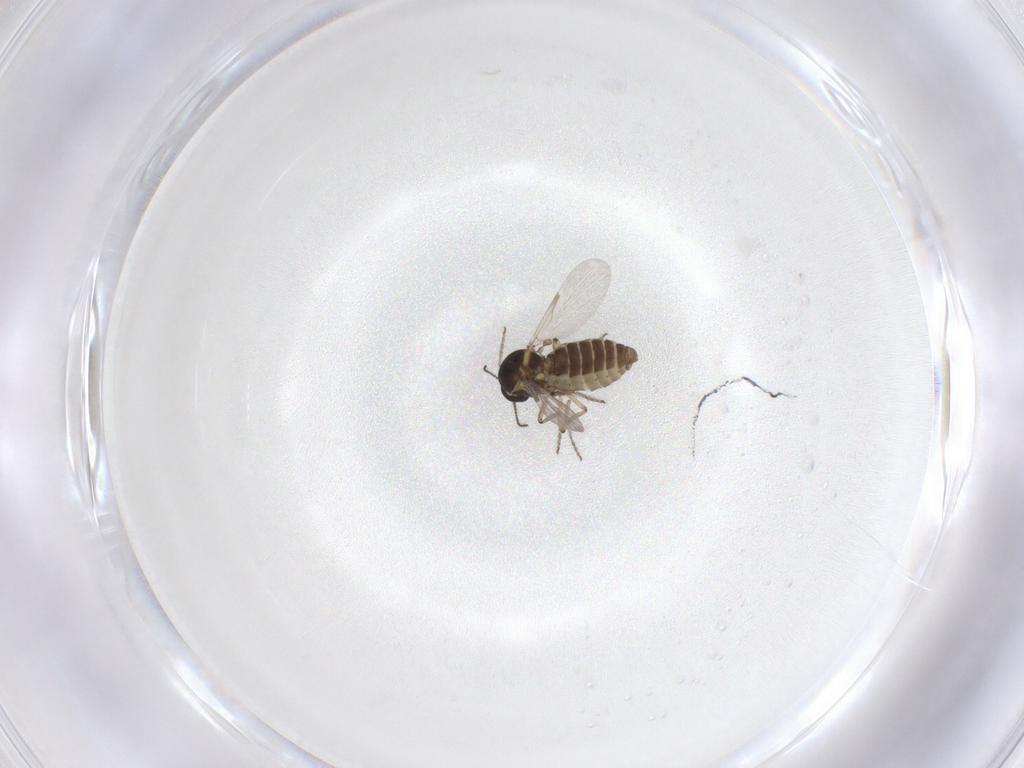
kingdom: Animalia
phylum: Arthropoda
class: Insecta
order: Diptera
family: Ceratopogonidae
